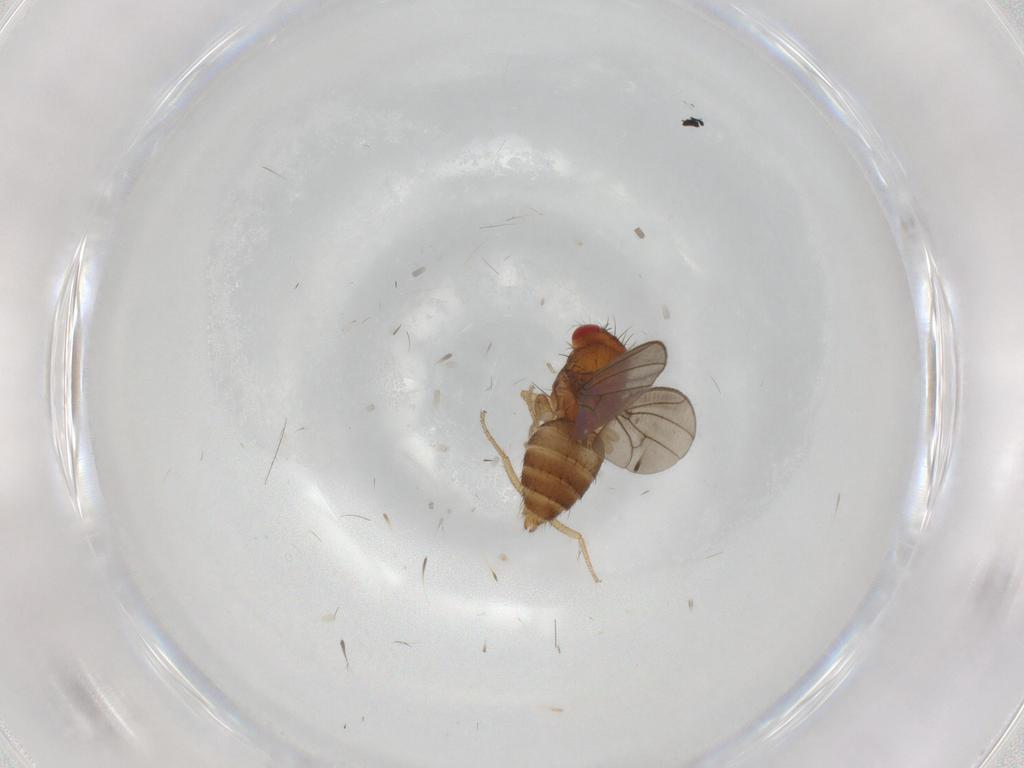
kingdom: Animalia
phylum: Arthropoda
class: Insecta
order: Diptera
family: Drosophilidae
